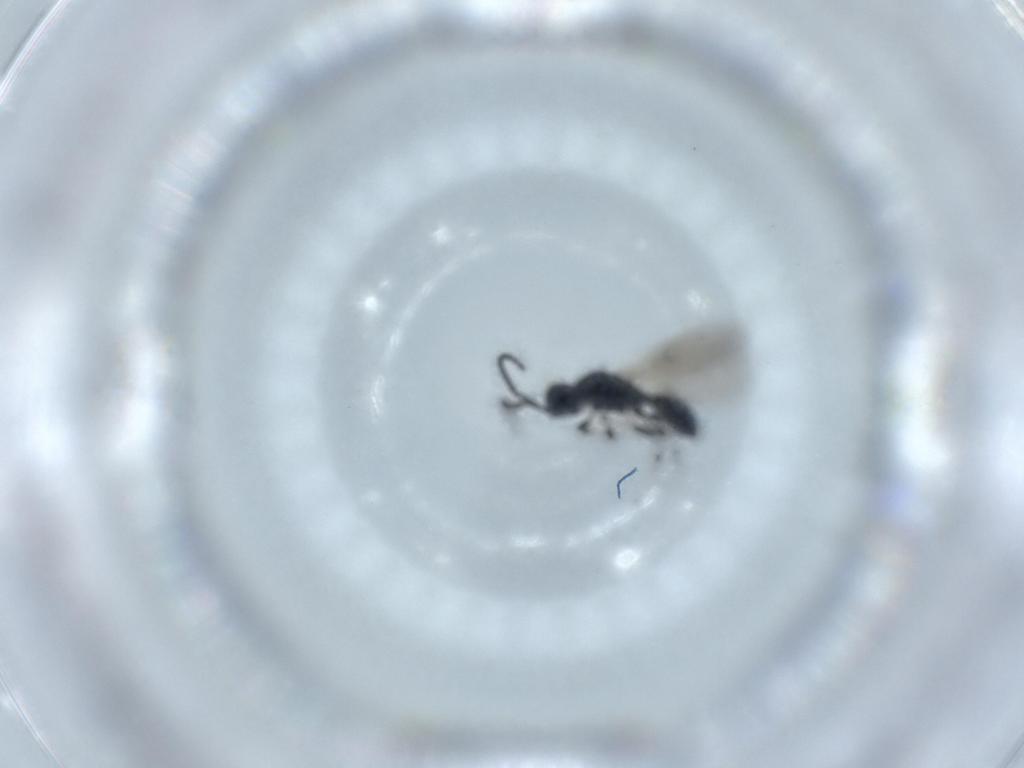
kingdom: Animalia
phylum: Arthropoda
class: Insecta
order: Hymenoptera
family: Diapriidae
